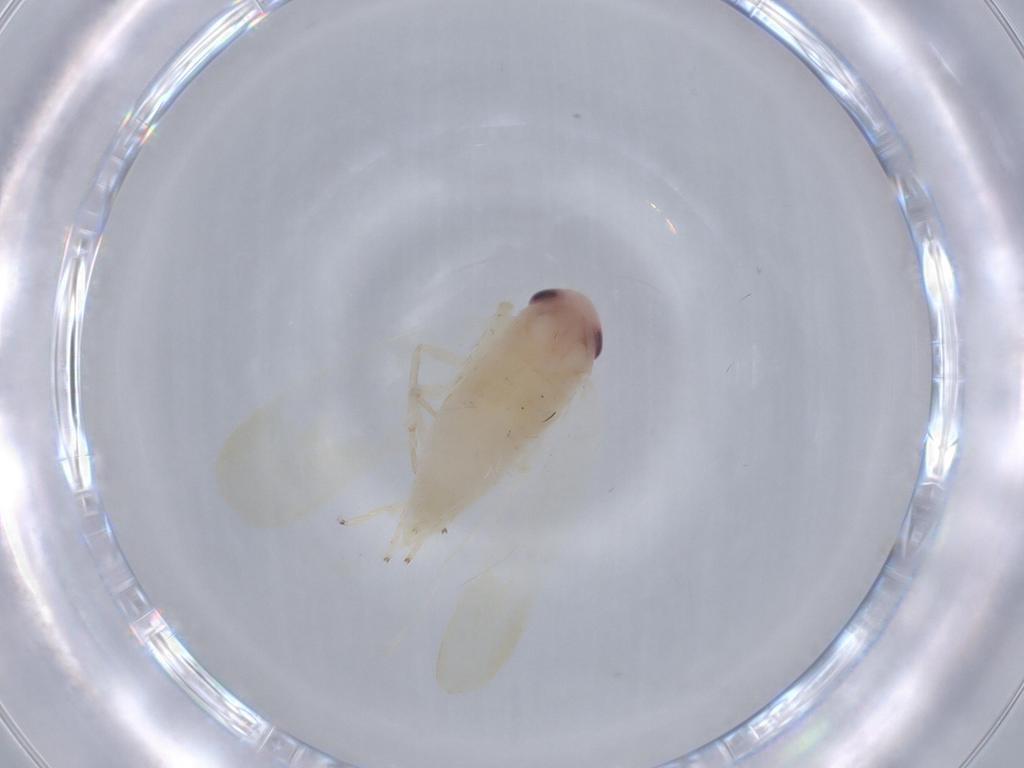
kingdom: Animalia
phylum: Arthropoda
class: Insecta
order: Hemiptera
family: Cicadellidae
